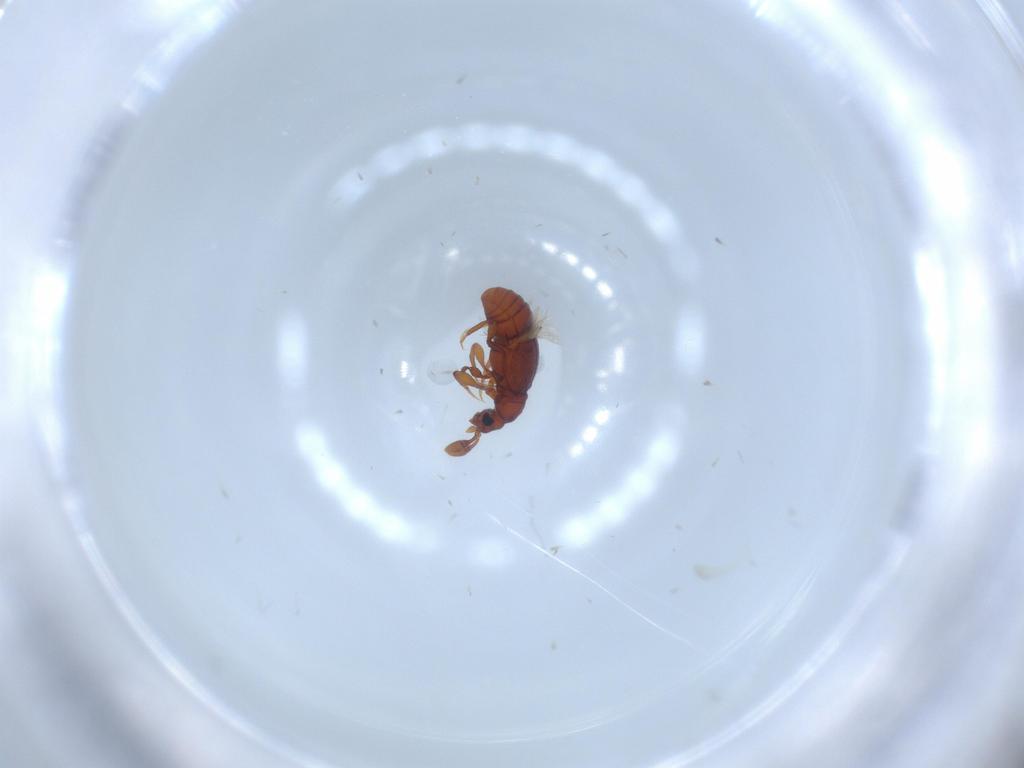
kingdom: Animalia
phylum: Arthropoda
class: Insecta
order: Coleoptera
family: Staphylinidae
